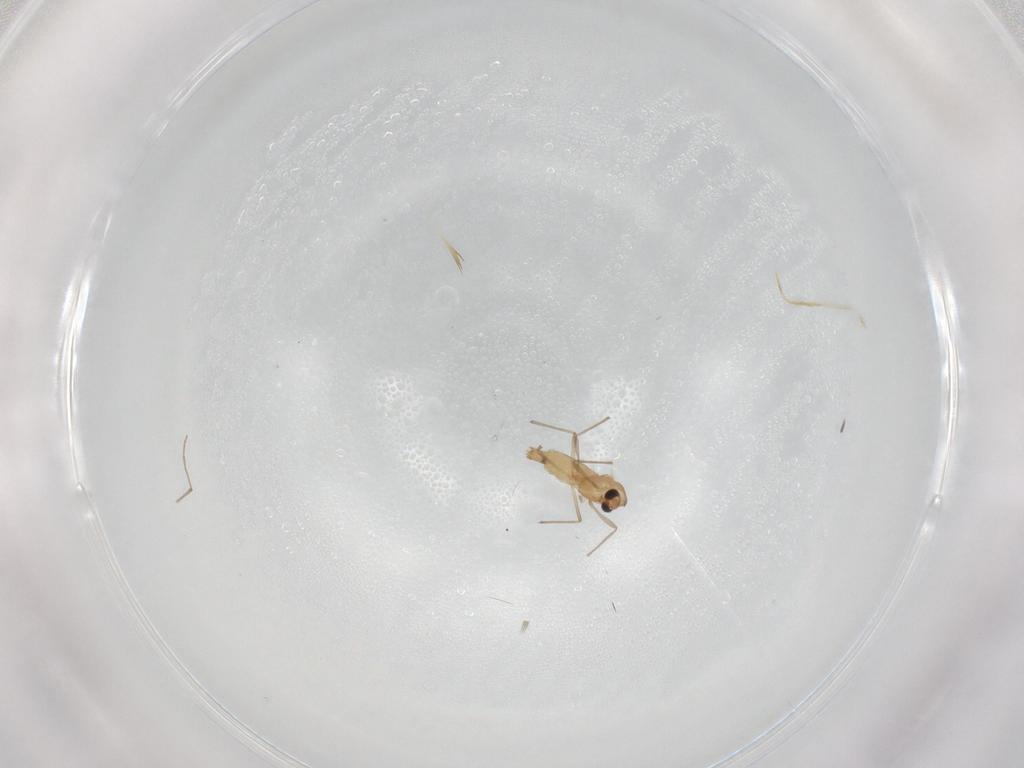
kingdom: Animalia
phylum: Arthropoda
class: Insecta
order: Diptera
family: Chironomidae
